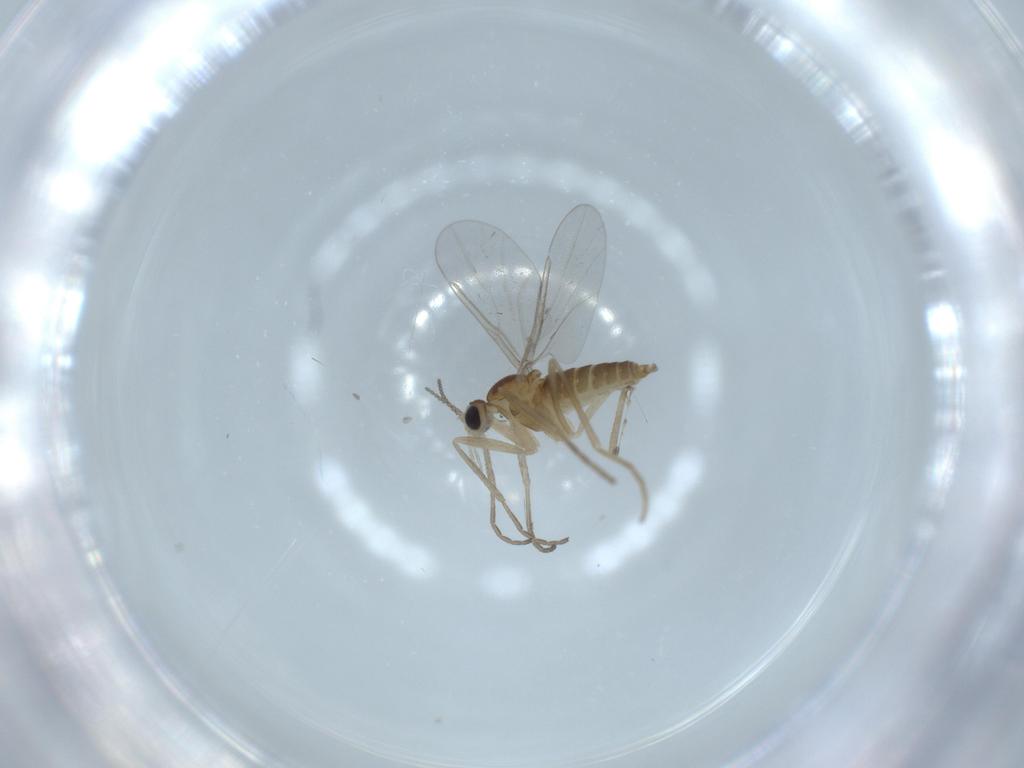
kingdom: Animalia
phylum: Arthropoda
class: Insecta
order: Diptera
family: Cecidomyiidae
